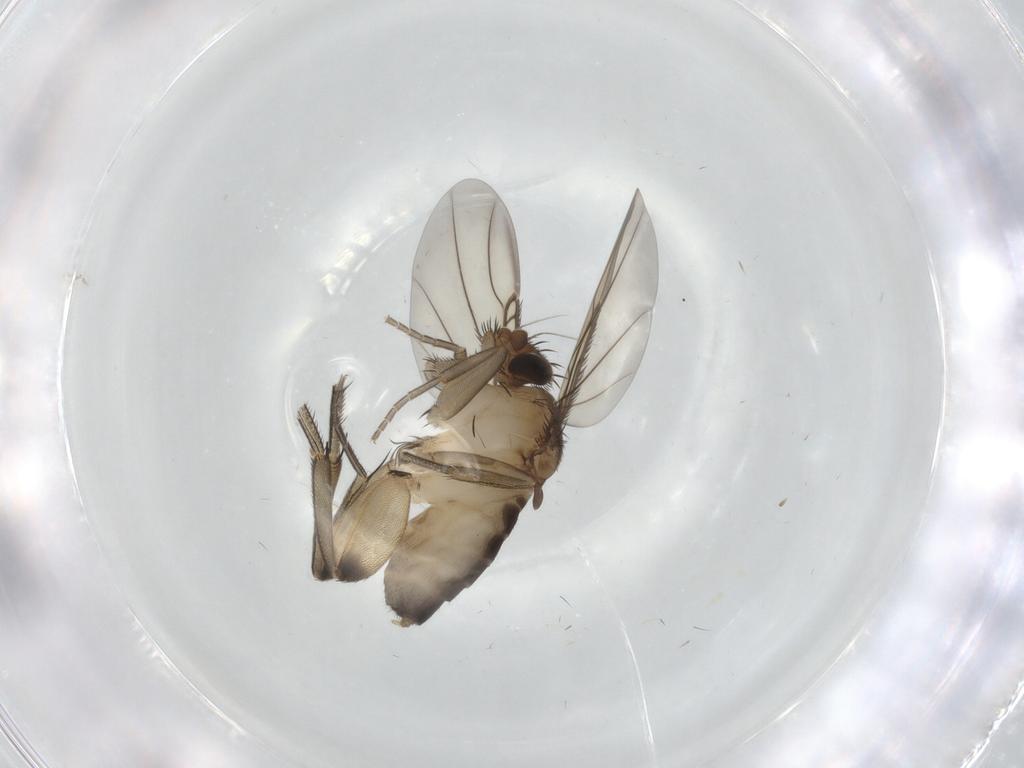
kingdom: Animalia
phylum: Arthropoda
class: Insecta
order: Diptera
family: Phoridae
